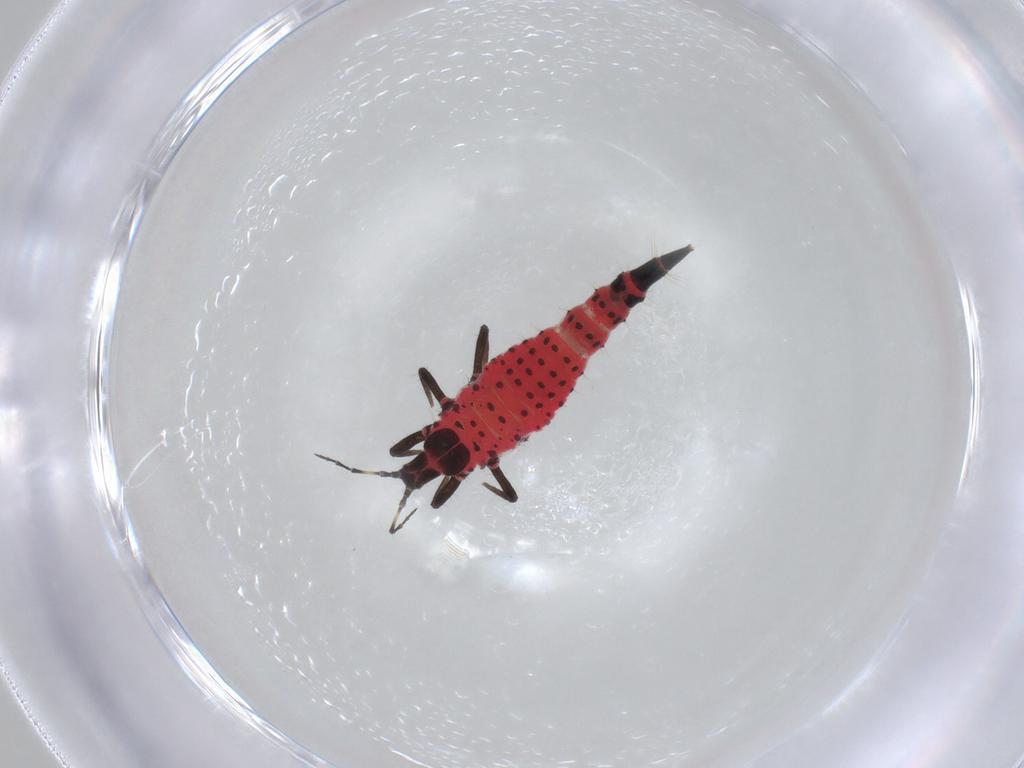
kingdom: Animalia
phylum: Arthropoda
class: Insecta
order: Thysanoptera
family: Phlaeothripidae
